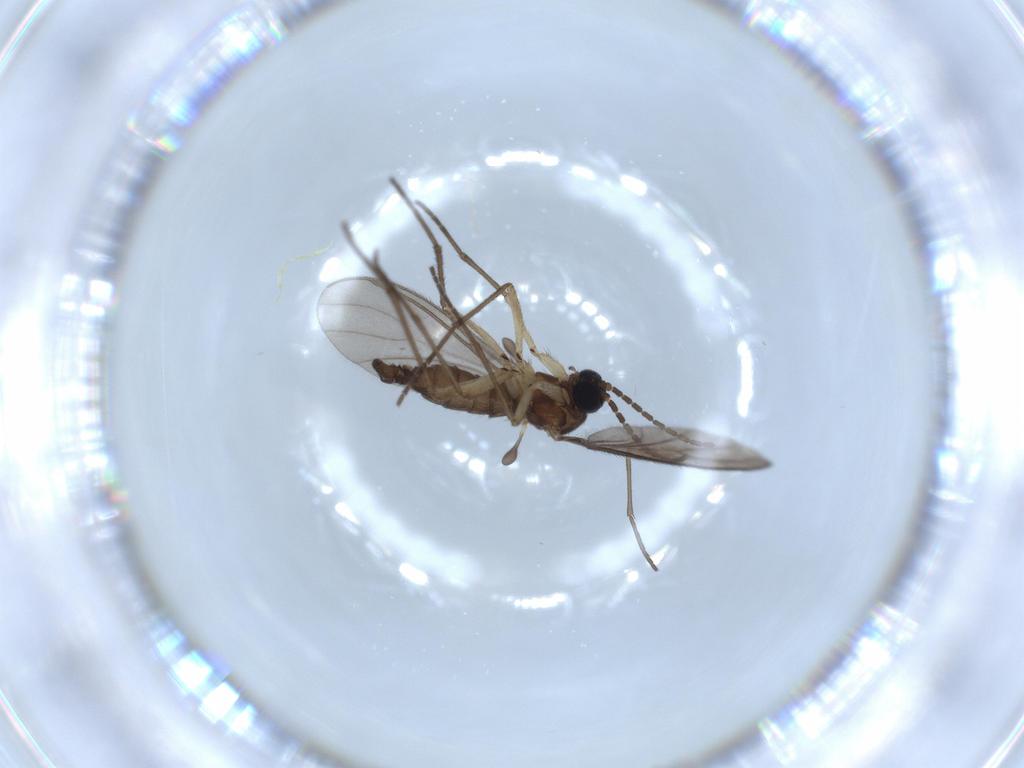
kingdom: Animalia
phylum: Arthropoda
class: Insecta
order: Diptera
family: Sciaridae
